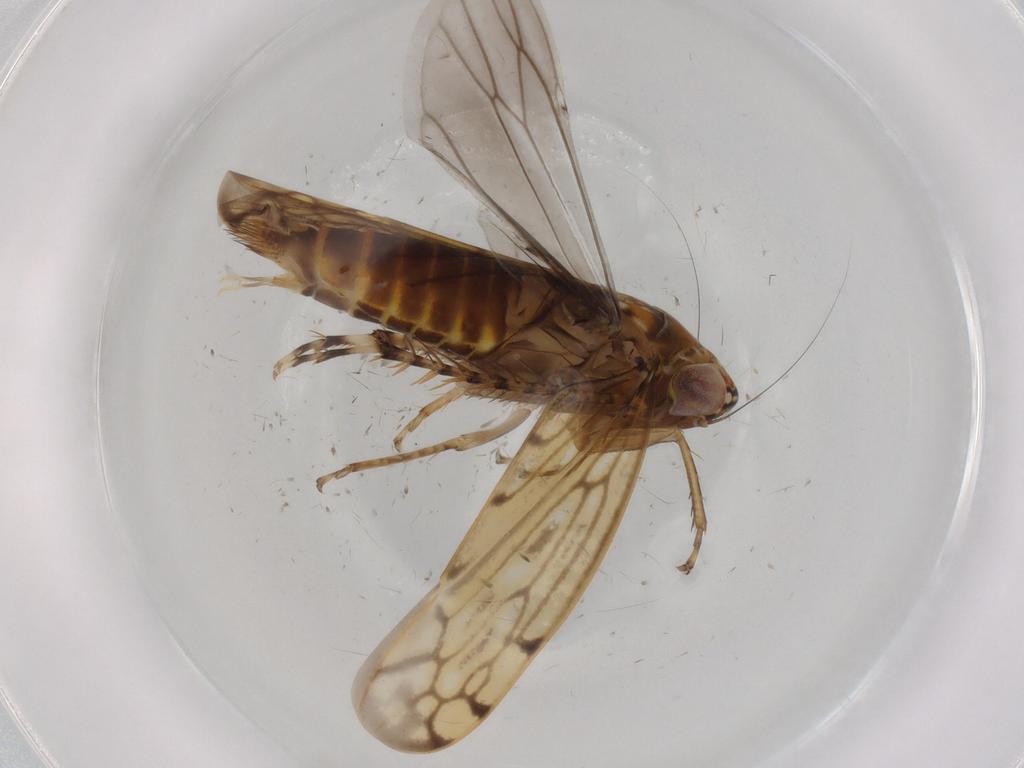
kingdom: Animalia
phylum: Arthropoda
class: Insecta
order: Hemiptera
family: Cicadellidae
